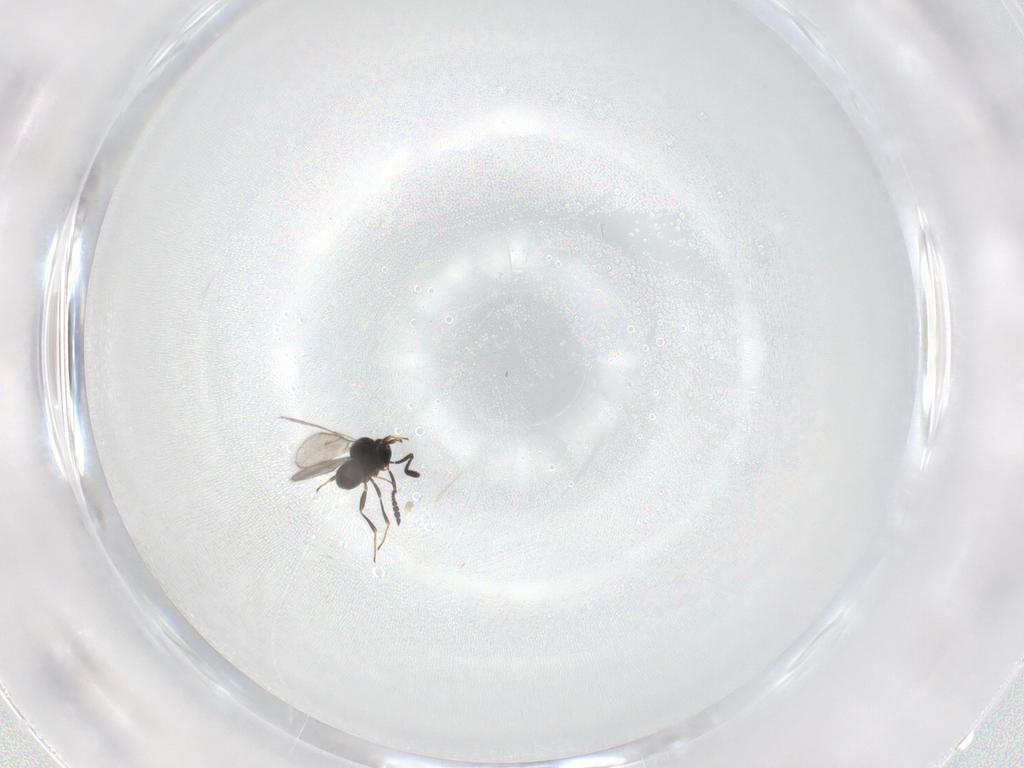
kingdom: Animalia
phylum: Arthropoda
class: Insecta
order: Hymenoptera
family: Scelionidae
